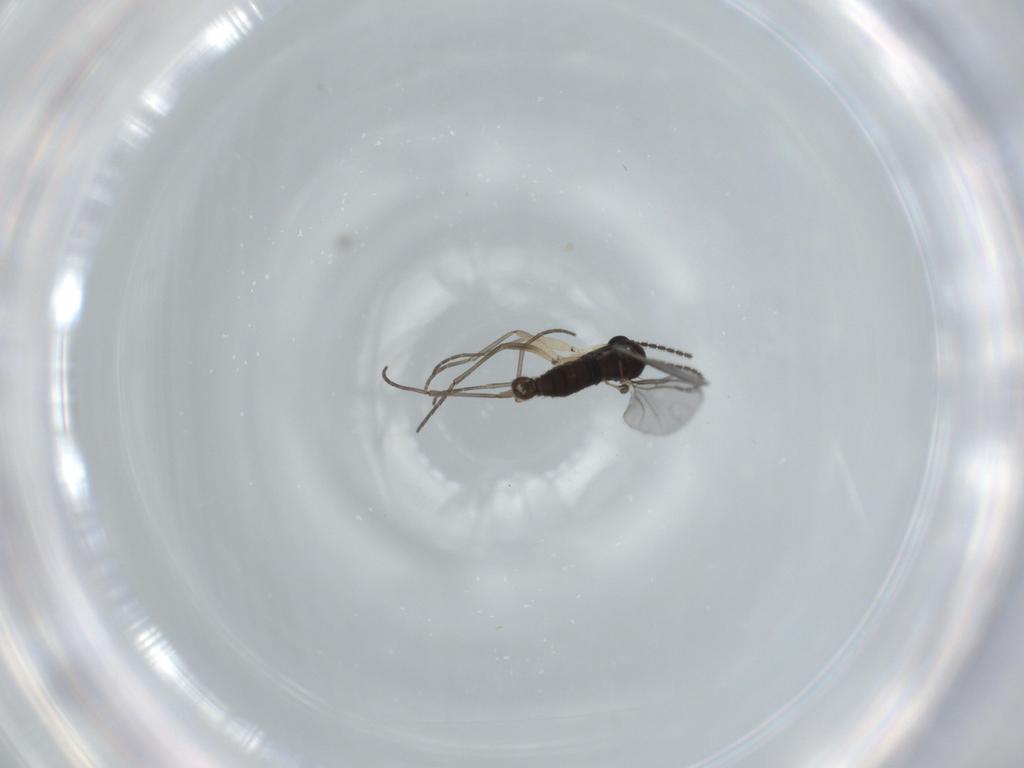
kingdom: Animalia
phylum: Arthropoda
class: Insecta
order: Diptera
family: Sciaridae
